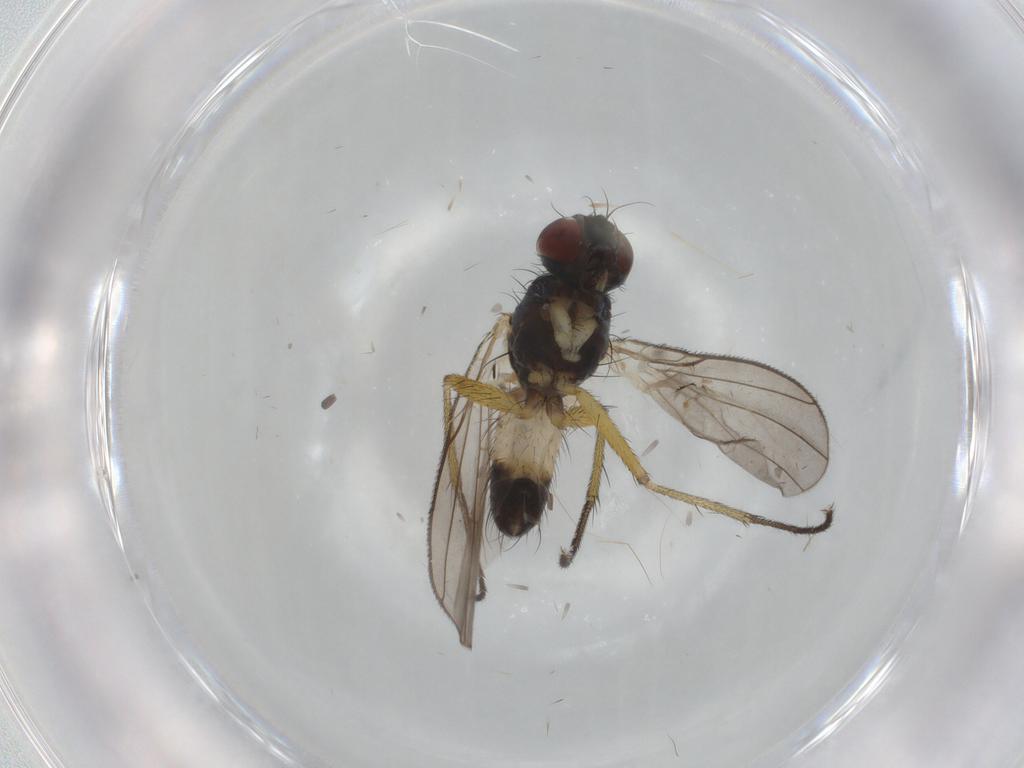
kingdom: Animalia
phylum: Arthropoda
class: Insecta
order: Diptera
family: Muscidae
